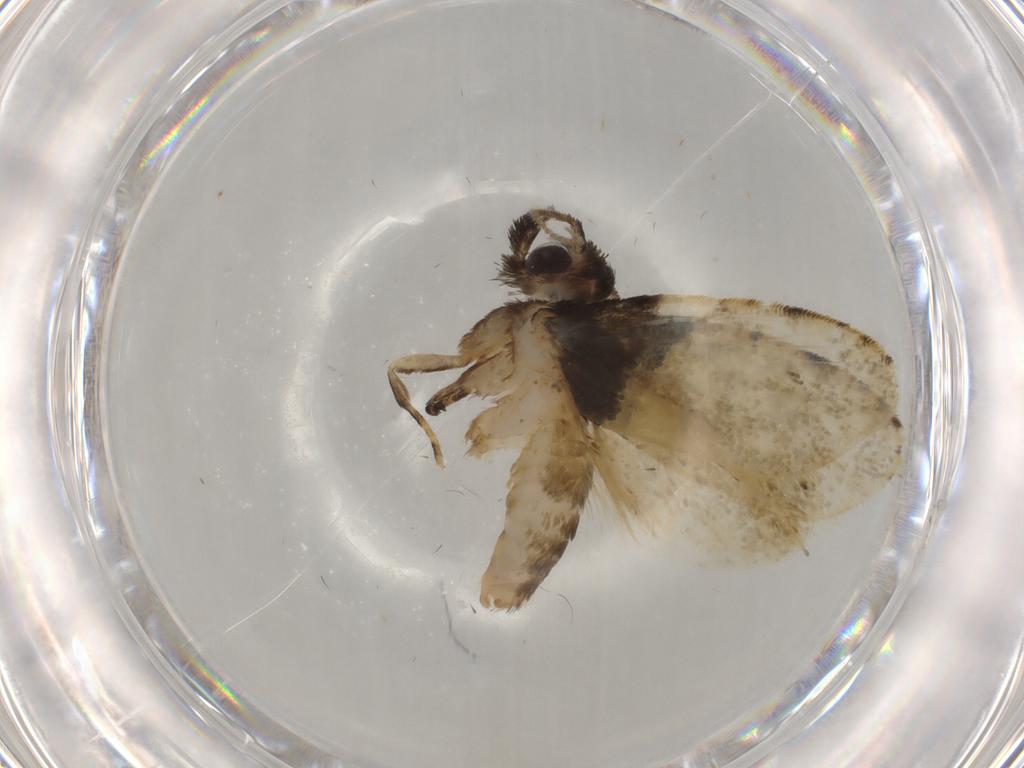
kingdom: Animalia
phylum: Arthropoda
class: Insecta
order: Lepidoptera
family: Psychidae
